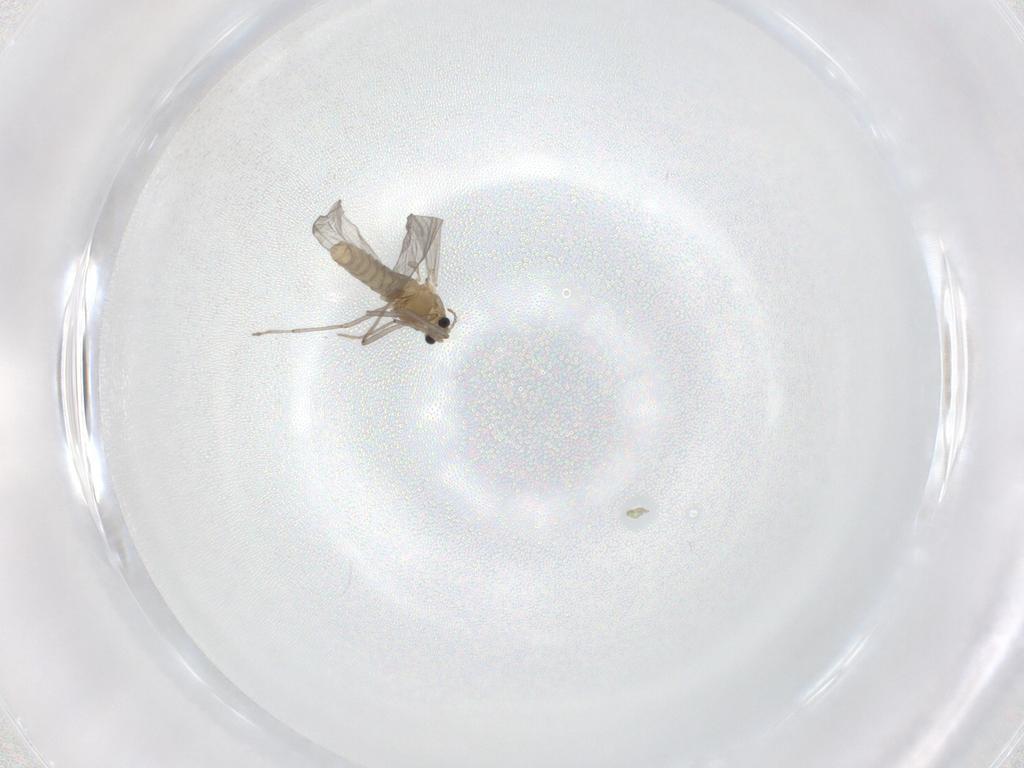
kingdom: Animalia
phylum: Arthropoda
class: Insecta
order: Diptera
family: Chironomidae
